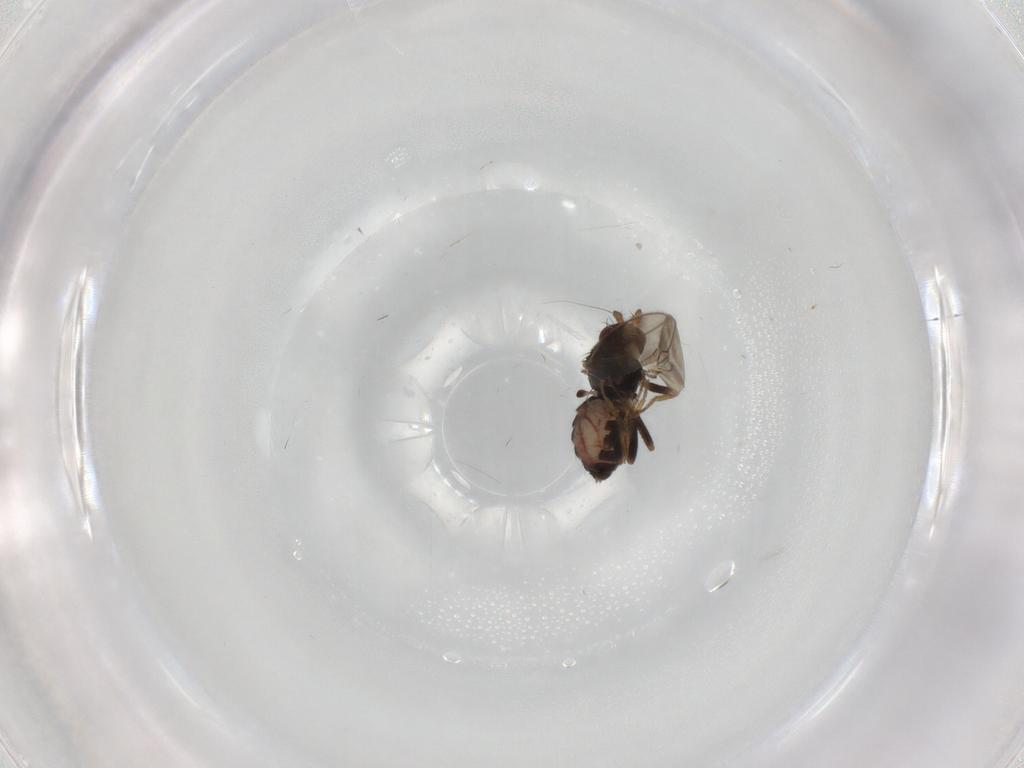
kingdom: Animalia
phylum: Arthropoda
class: Insecta
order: Diptera
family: Sphaeroceridae
